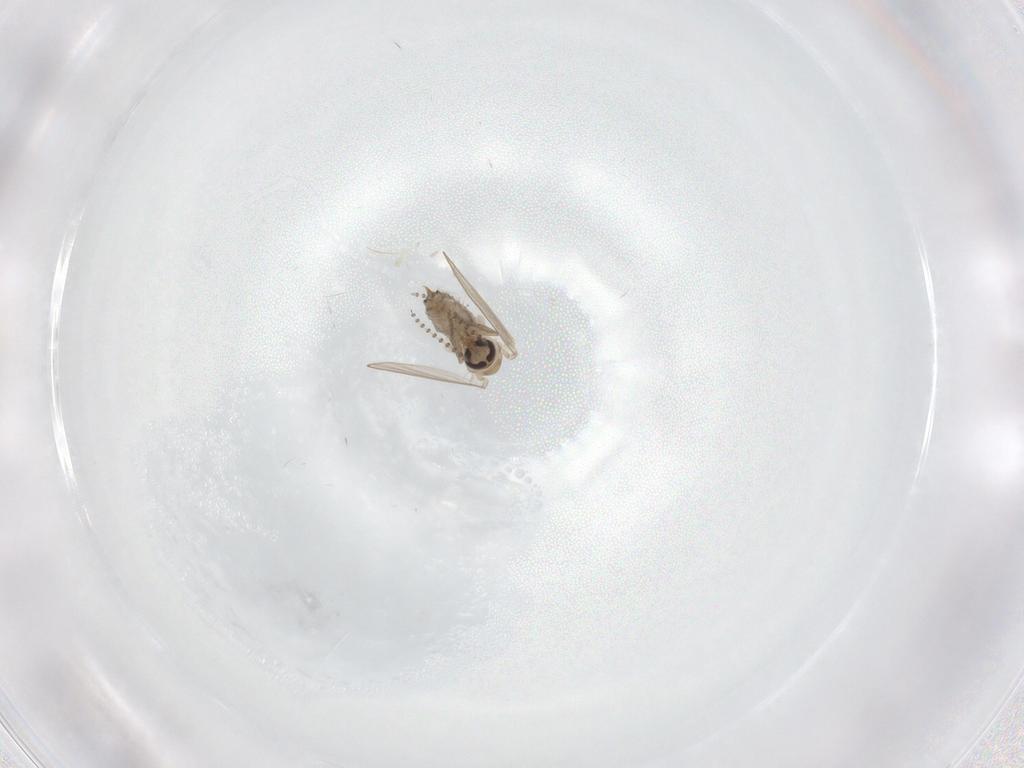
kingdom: Animalia
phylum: Arthropoda
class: Insecta
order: Diptera
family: Psychodidae
